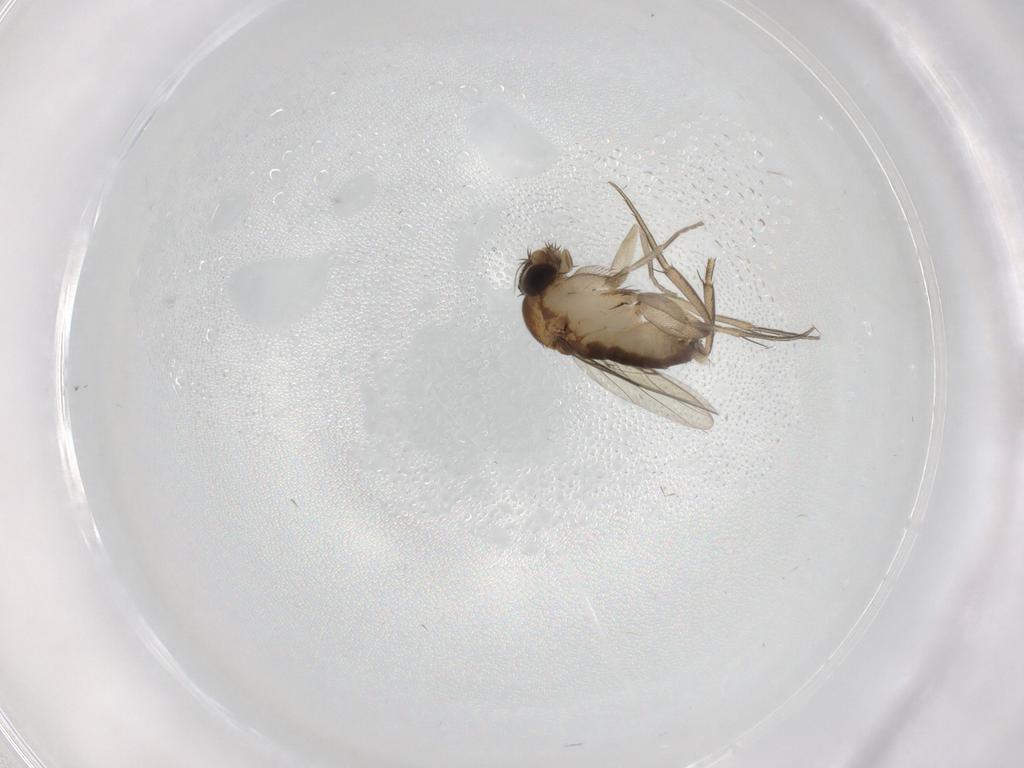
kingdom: Animalia
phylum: Arthropoda
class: Insecta
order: Diptera
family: Phoridae
